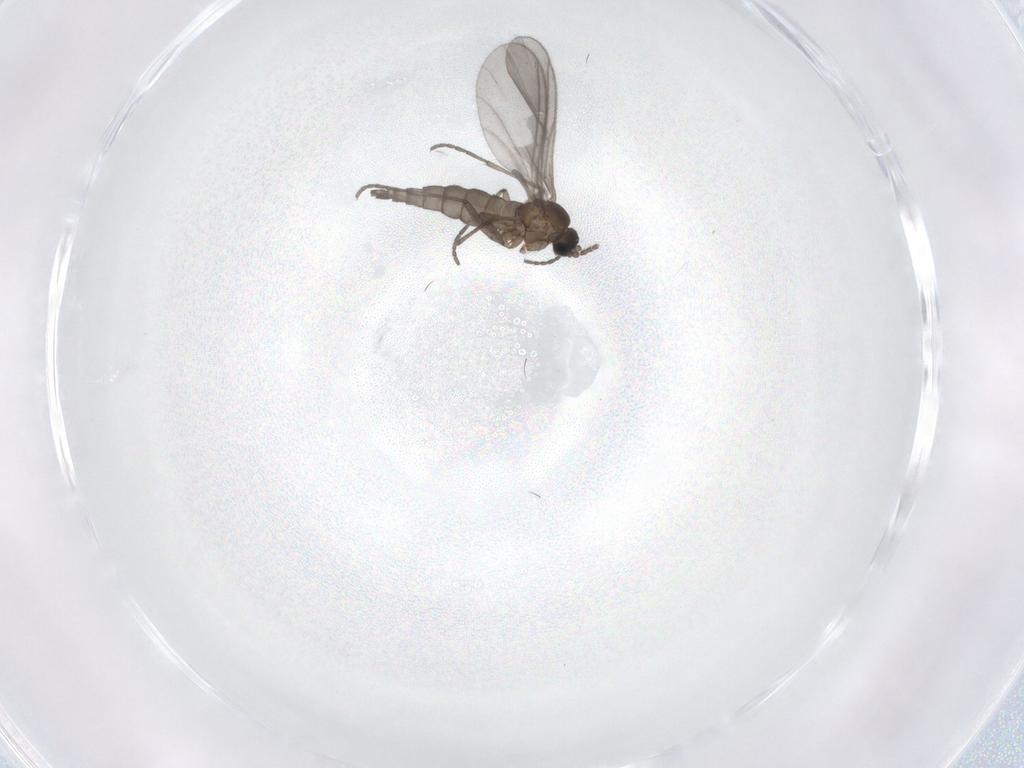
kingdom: Animalia
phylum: Arthropoda
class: Insecta
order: Diptera
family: Sciaridae
